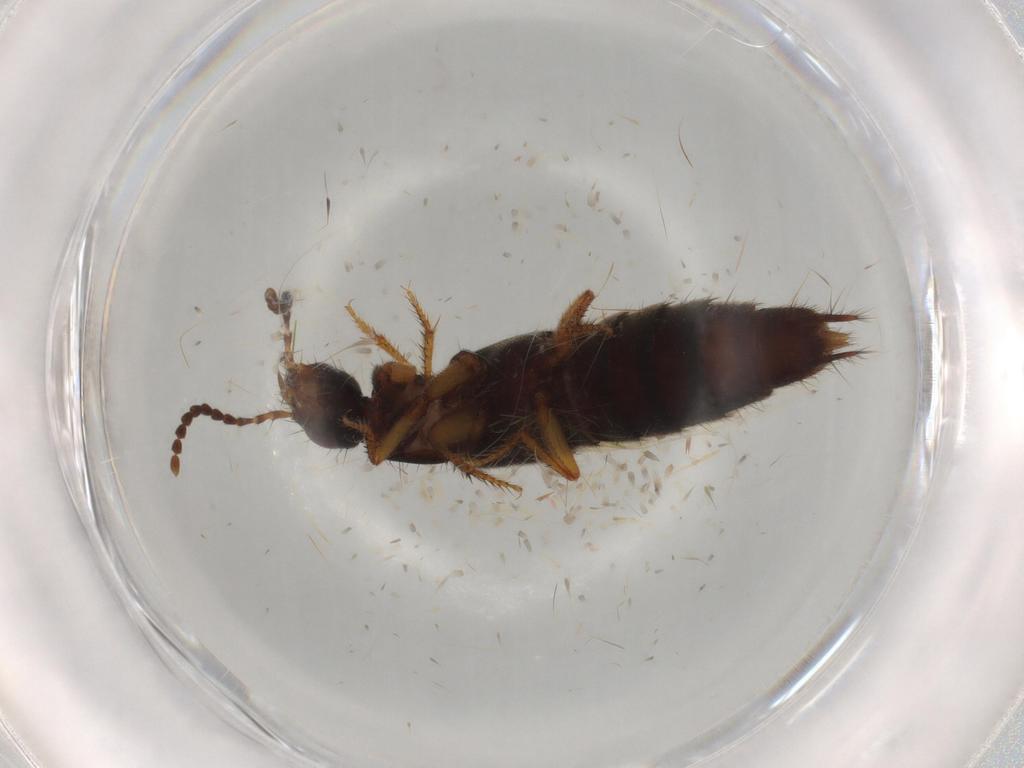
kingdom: Animalia
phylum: Arthropoda
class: Insecta
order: Coleoptera
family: Staphylinidae
